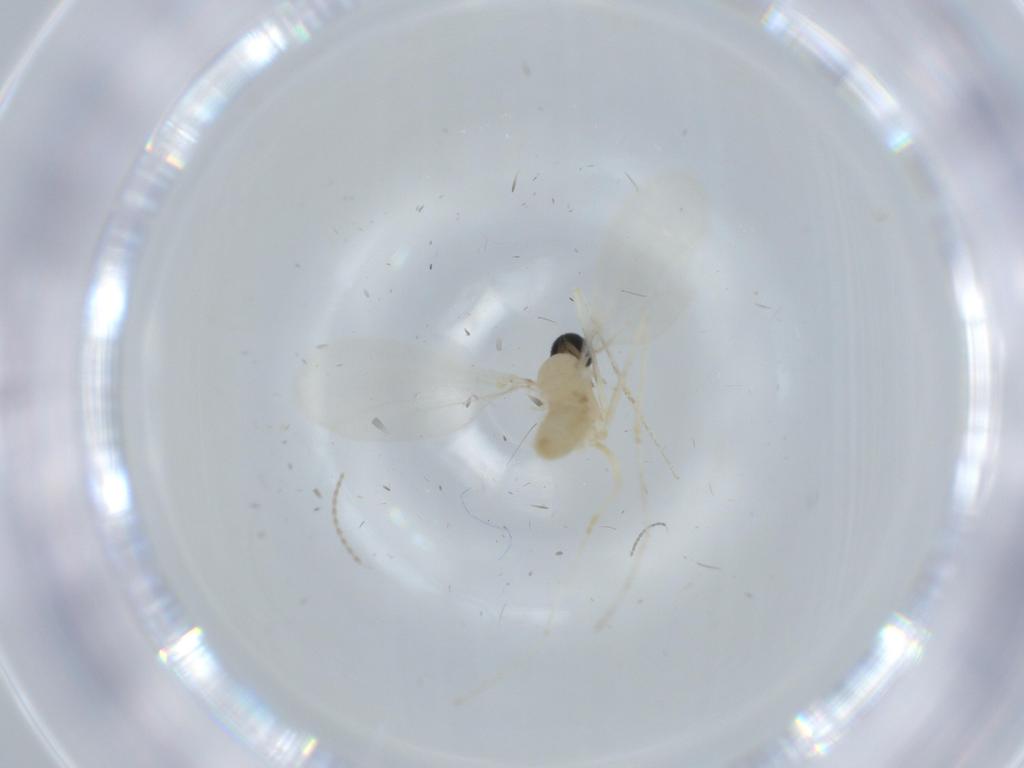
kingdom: Animalia
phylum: Arthropoda
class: Insecta
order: Diptera
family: Cecidomyiidae
